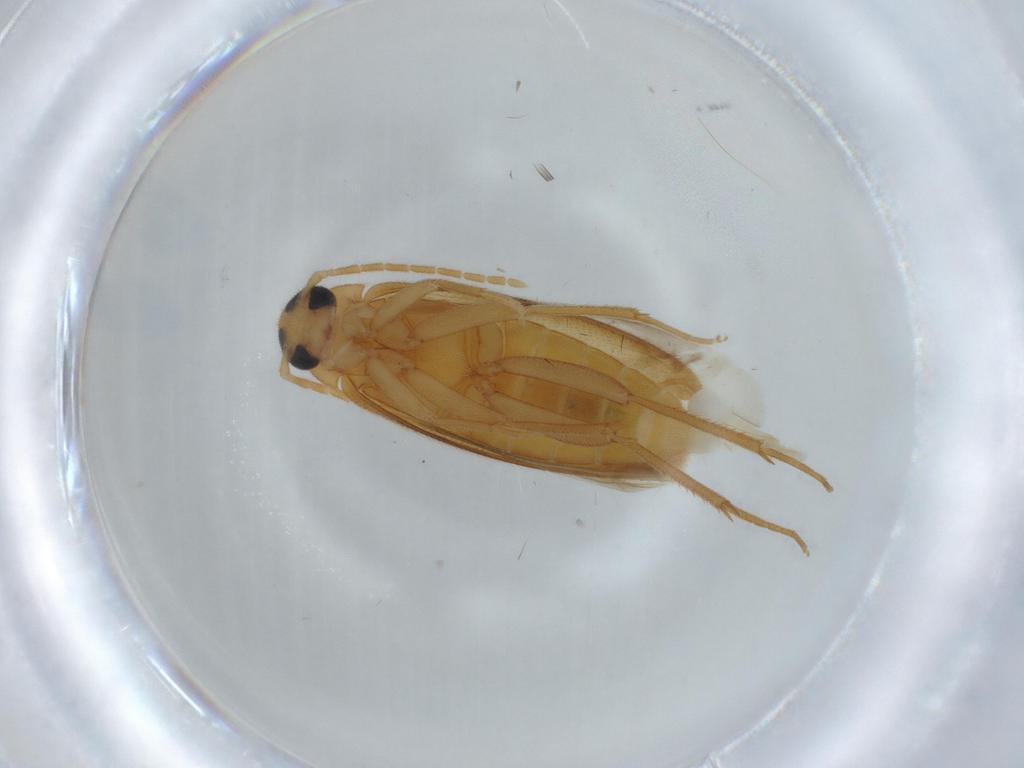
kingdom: Animalia
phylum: Arthropoda
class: Insecta
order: Coleoptera
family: Scraptiidae
